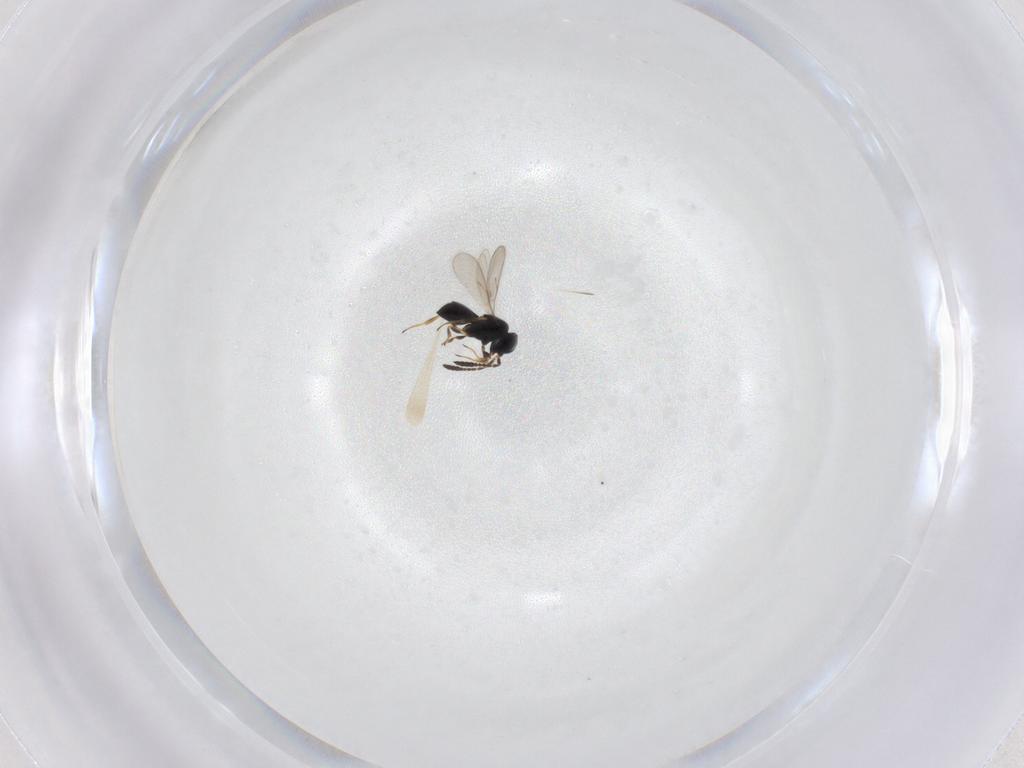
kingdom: Animalia
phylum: Arthropoda
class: Insecta
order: Hymenoptera
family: Scelionidae
